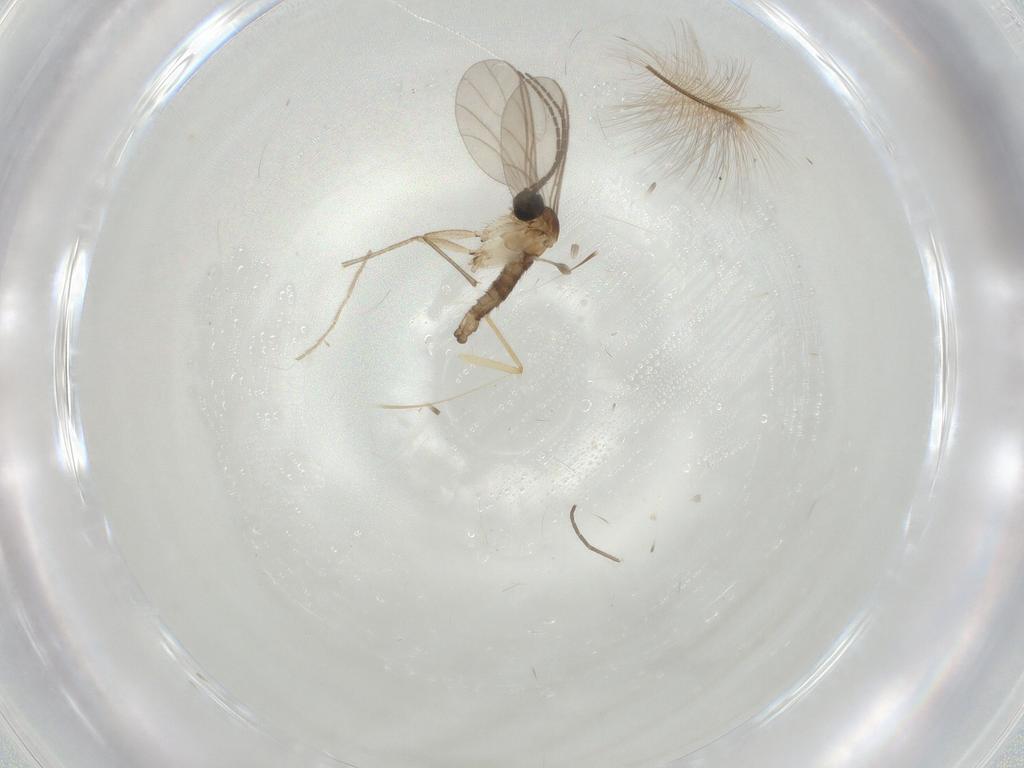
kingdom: Animalia
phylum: Arthropoda
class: Insecta
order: Diptera
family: Sciaridae
